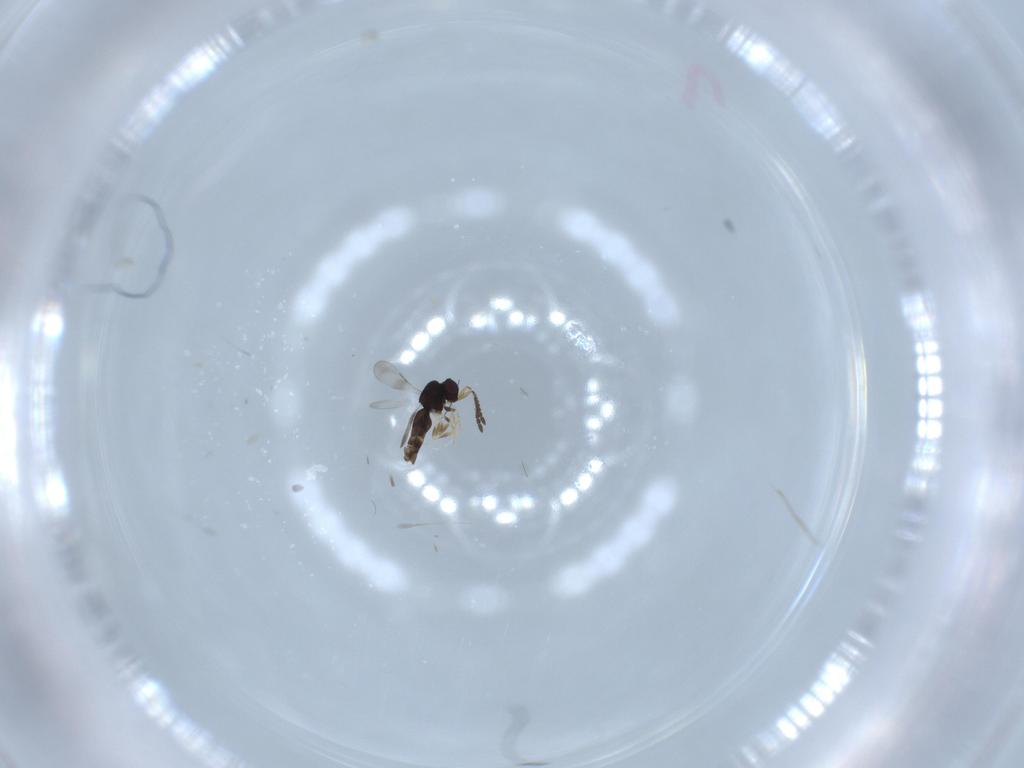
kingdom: Animalia
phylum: Arthropoda
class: Insecta
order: Hymenoptera
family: Ceraphronidae
